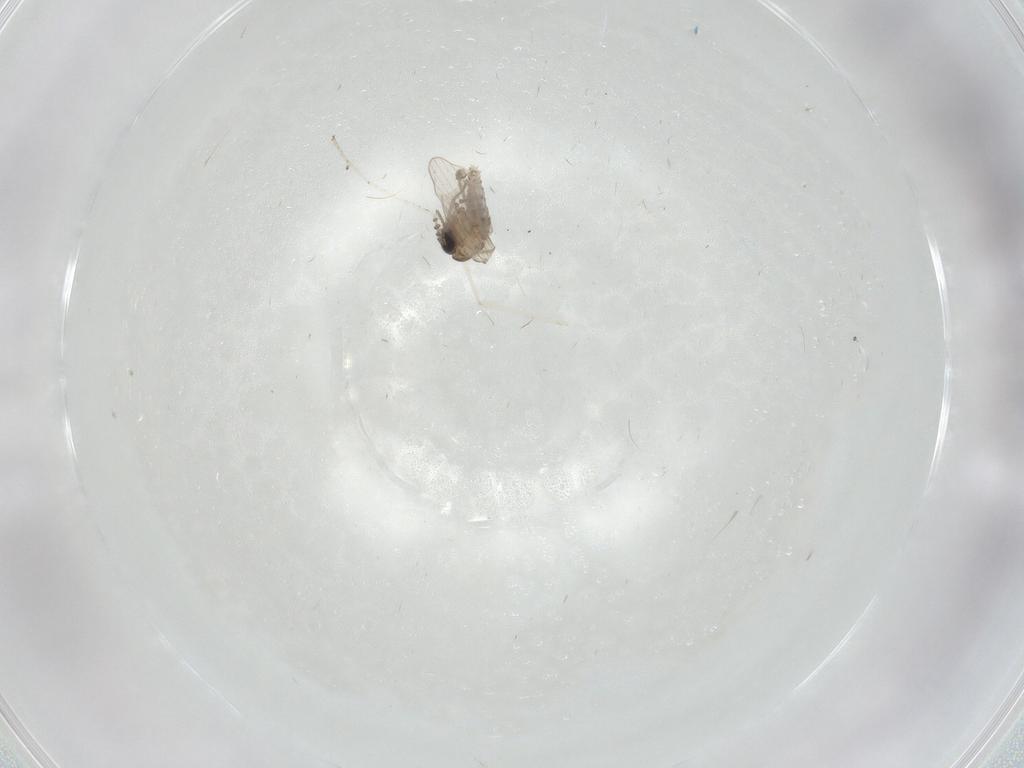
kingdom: Animalia
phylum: Arthropoda
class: Insecta
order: Diptera
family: Psychodidae
